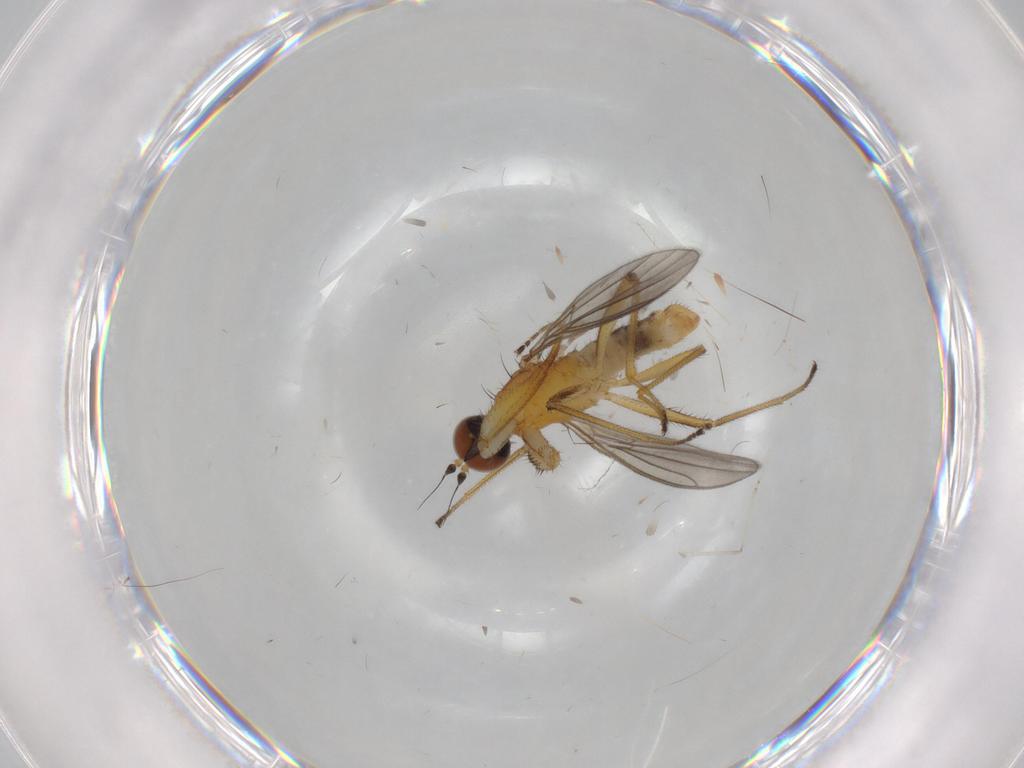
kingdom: Animalia
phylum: Arthropoda
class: Insecta
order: Diptera
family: Empididae
